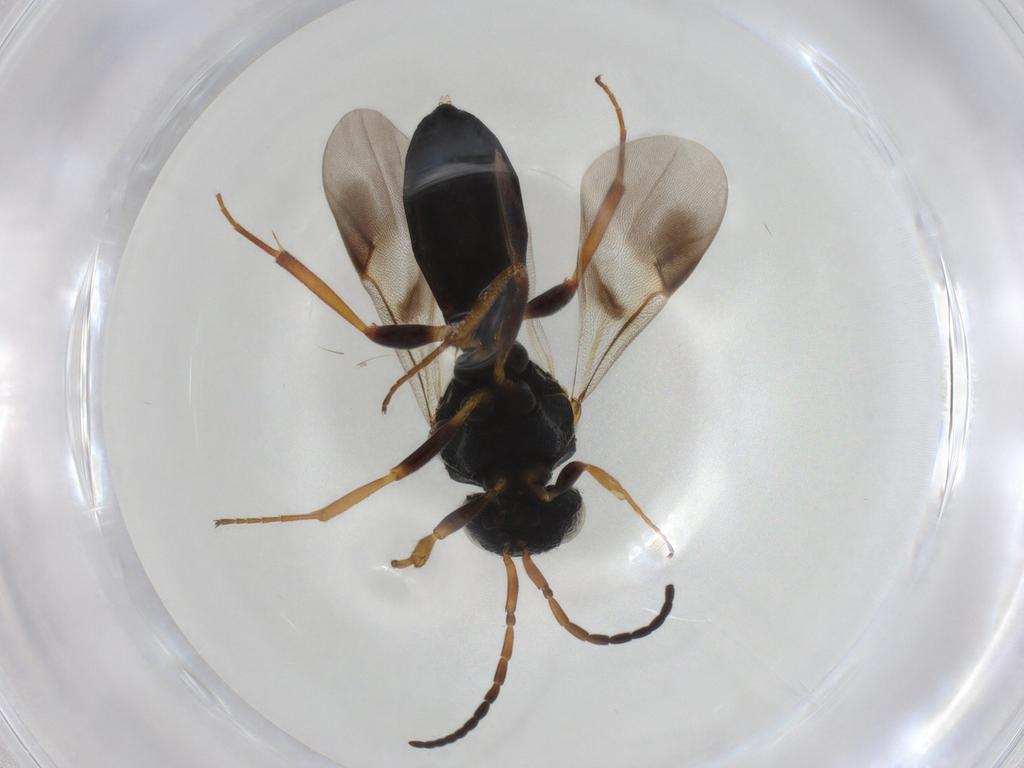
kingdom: Animalia
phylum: Arthropoda
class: Insecta
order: Hymenoptera
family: Scelionidae
